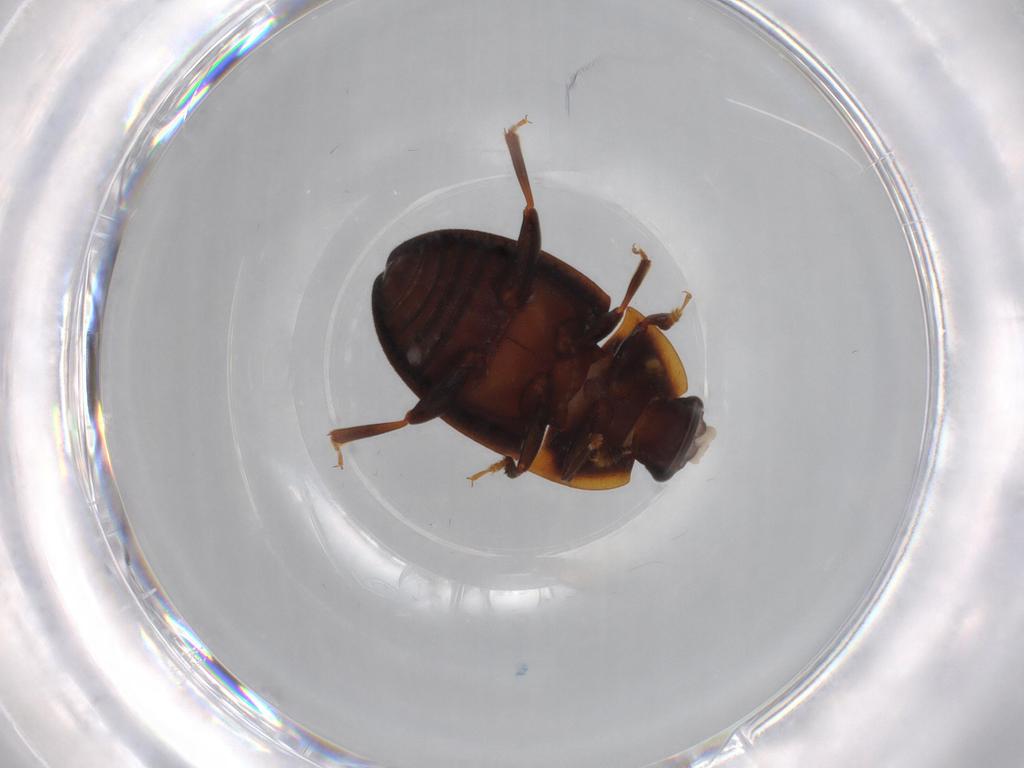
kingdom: Animalia
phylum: Arthropoda
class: Insecta
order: Coleoptera
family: Nitidulidae
